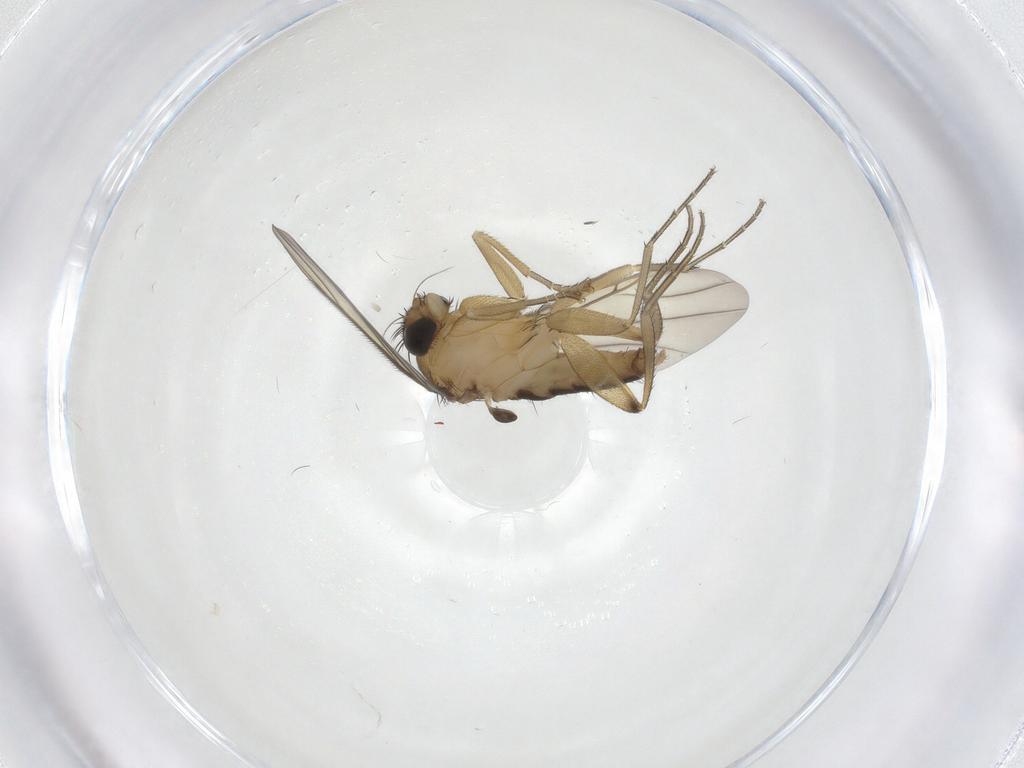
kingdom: Animalia
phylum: Arthropoda
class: Insecta
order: Diptera
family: Phoridae
